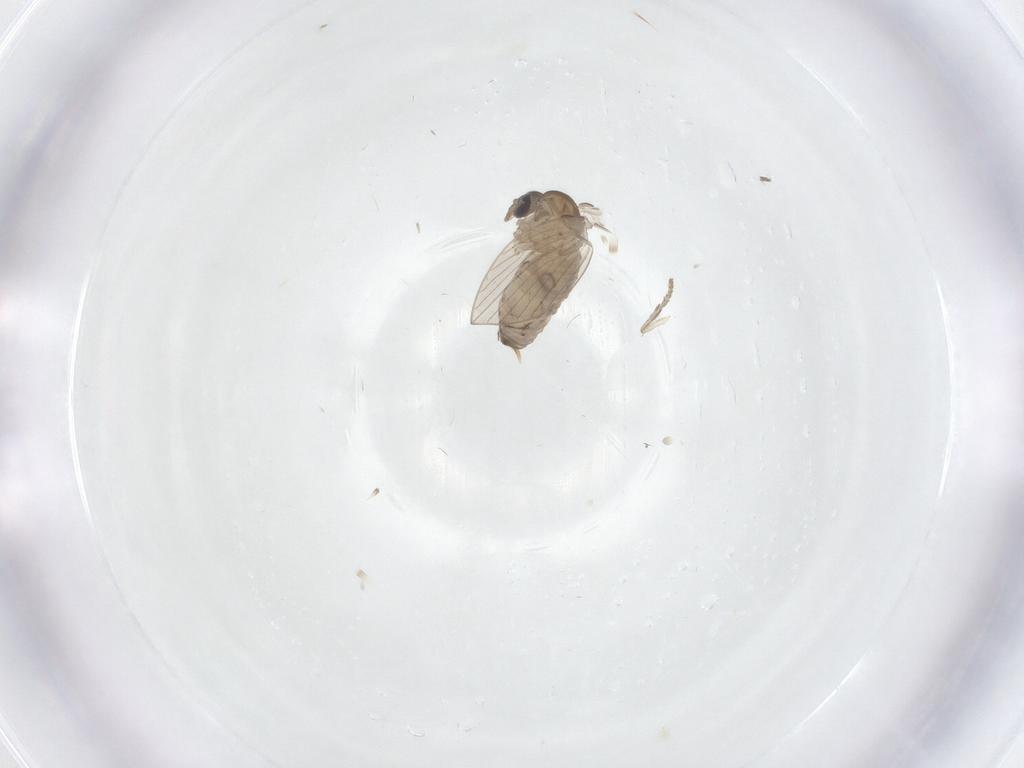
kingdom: Animalia
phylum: Arthropoda
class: Insecta
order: Diptera
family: Psychodidae
